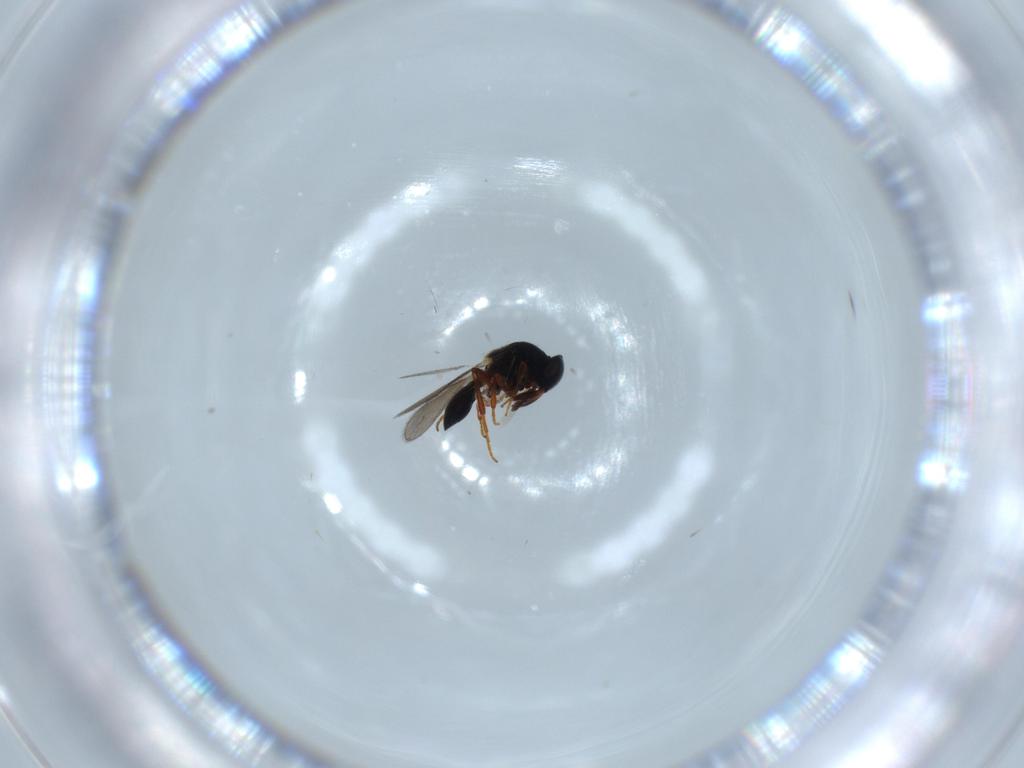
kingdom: Animalia
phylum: Arthropoda
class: Insecta
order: Hymenoptera
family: Platygastridae
